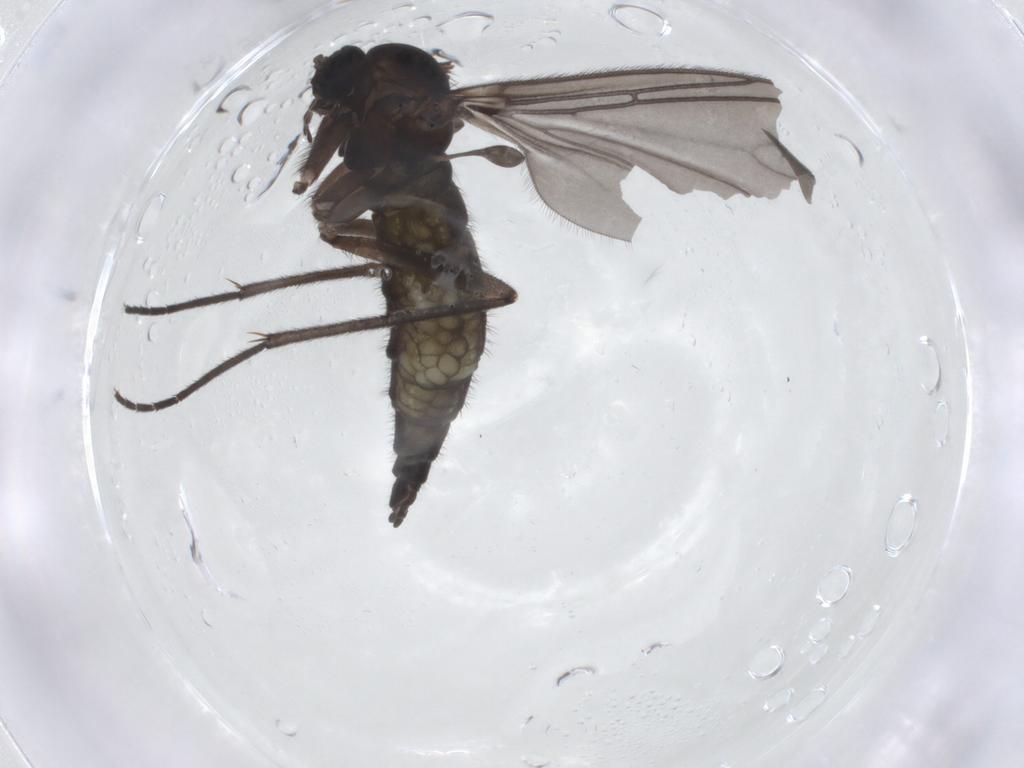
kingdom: Animalia
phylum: Arthropoda
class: Insecta
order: Diptera
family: Sciaridae
